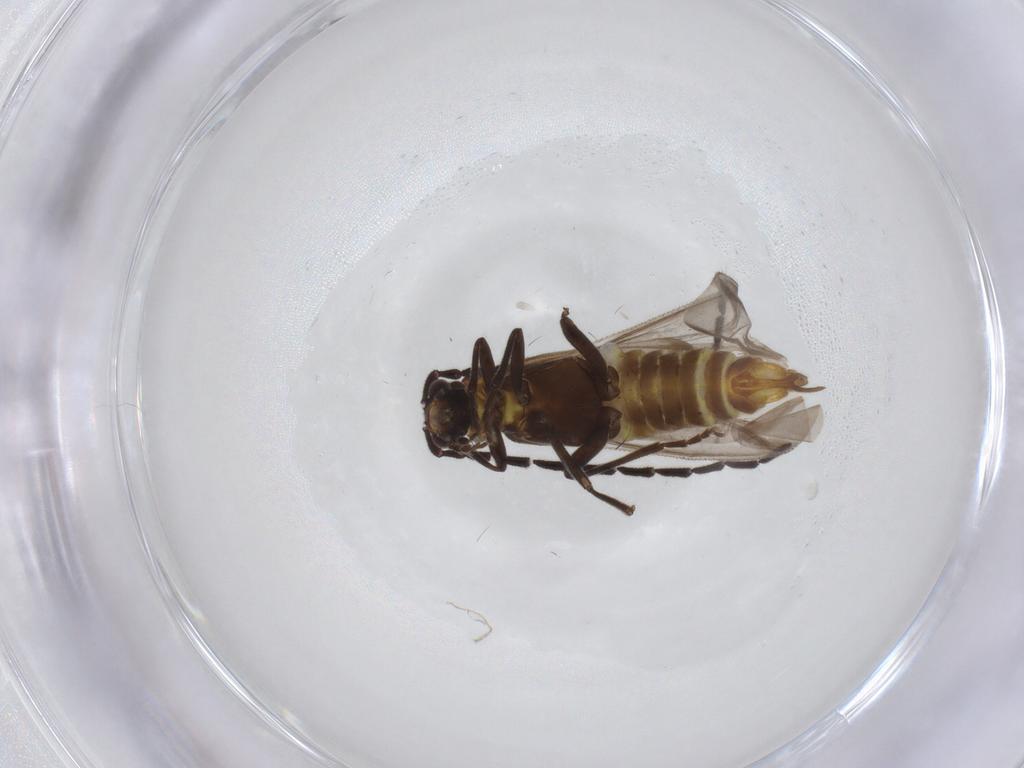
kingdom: Animalia
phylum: Arthropoda
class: Insecta
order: Coleoptera
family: Cantharidae
